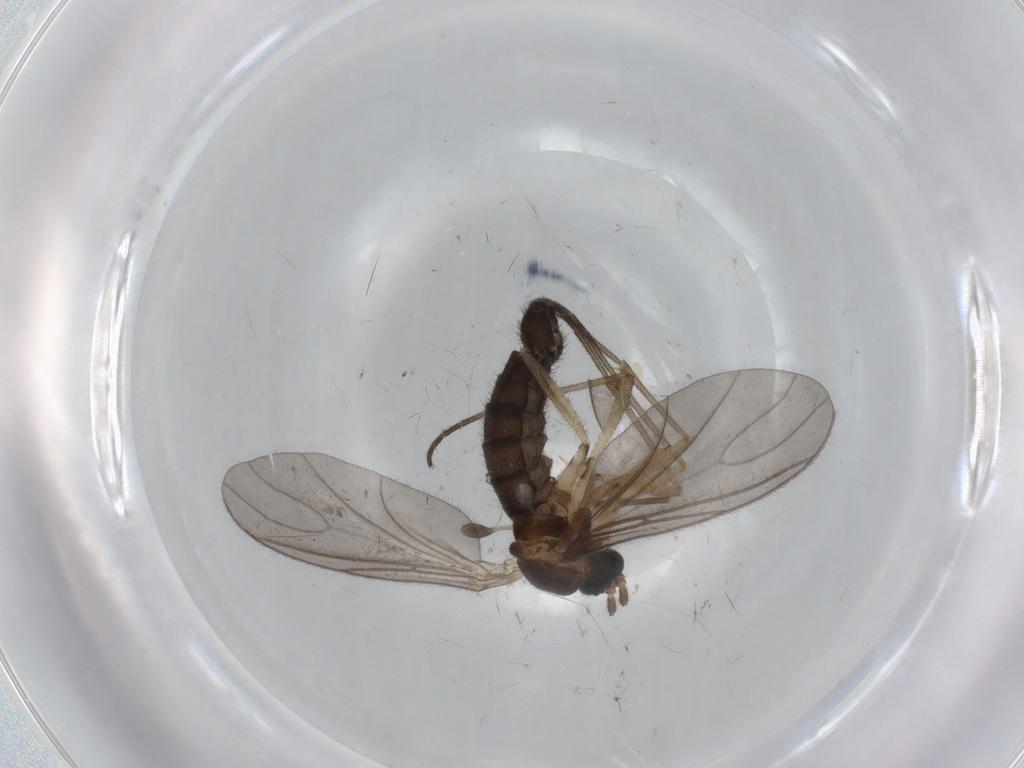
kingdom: Animalia
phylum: Arthropoda
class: Insecta
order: Diptera
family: Sciaridae
